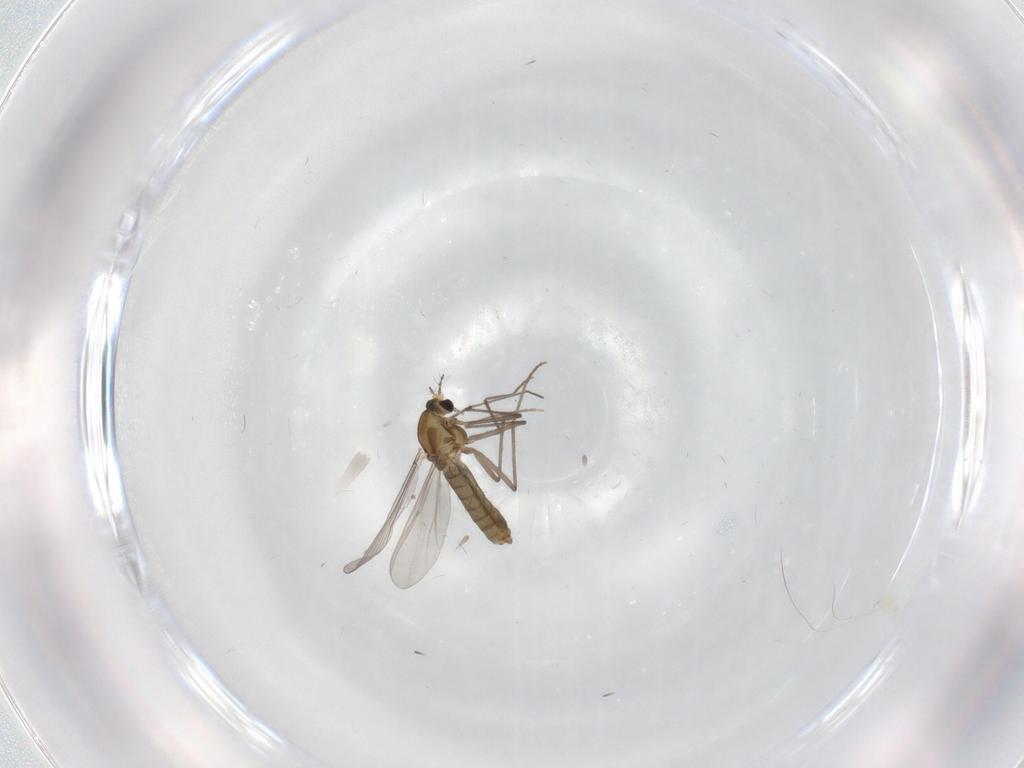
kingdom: Animalia
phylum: Arthropoda
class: Insecta
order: Diptera
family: Chironomidae
